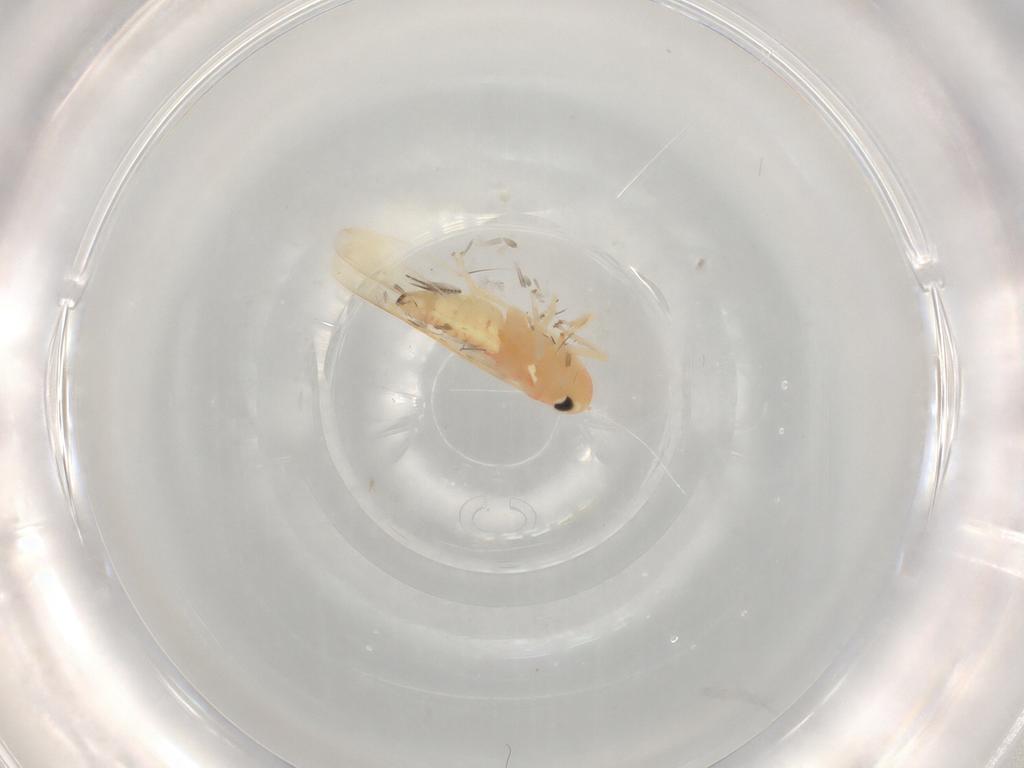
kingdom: Animalia
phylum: Arthropoda
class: Insecta
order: Hemiptera
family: Cicadellidae
